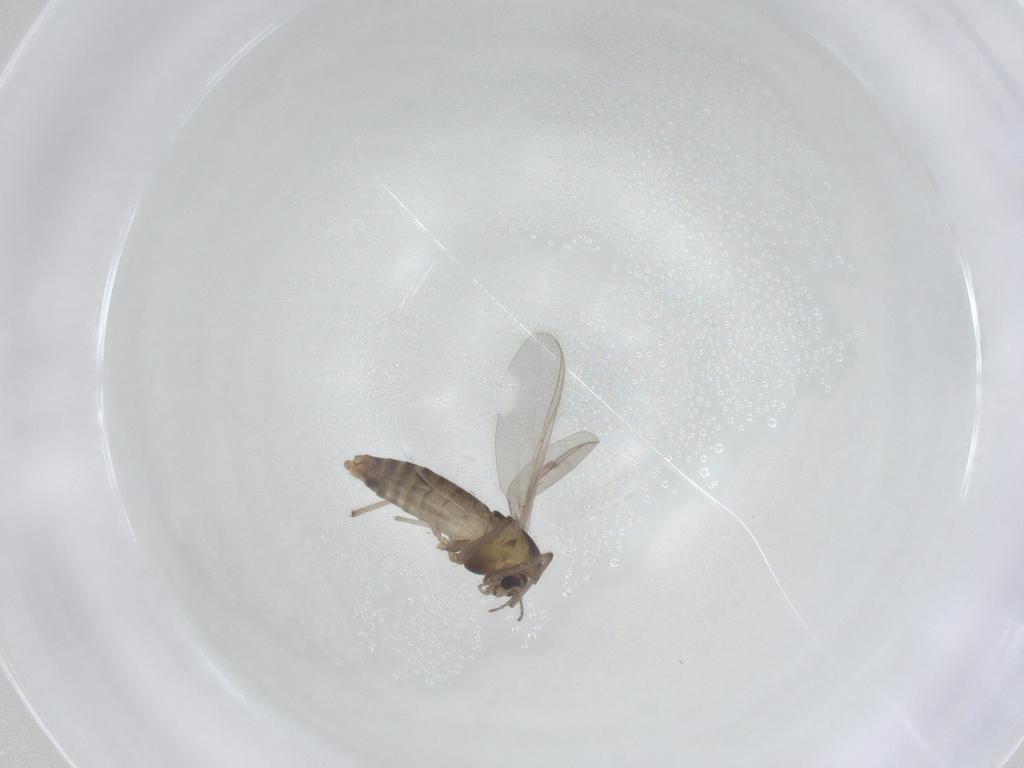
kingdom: Animalia
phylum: Arthropoda
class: Insecta
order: Diptera
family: Chironomidae
